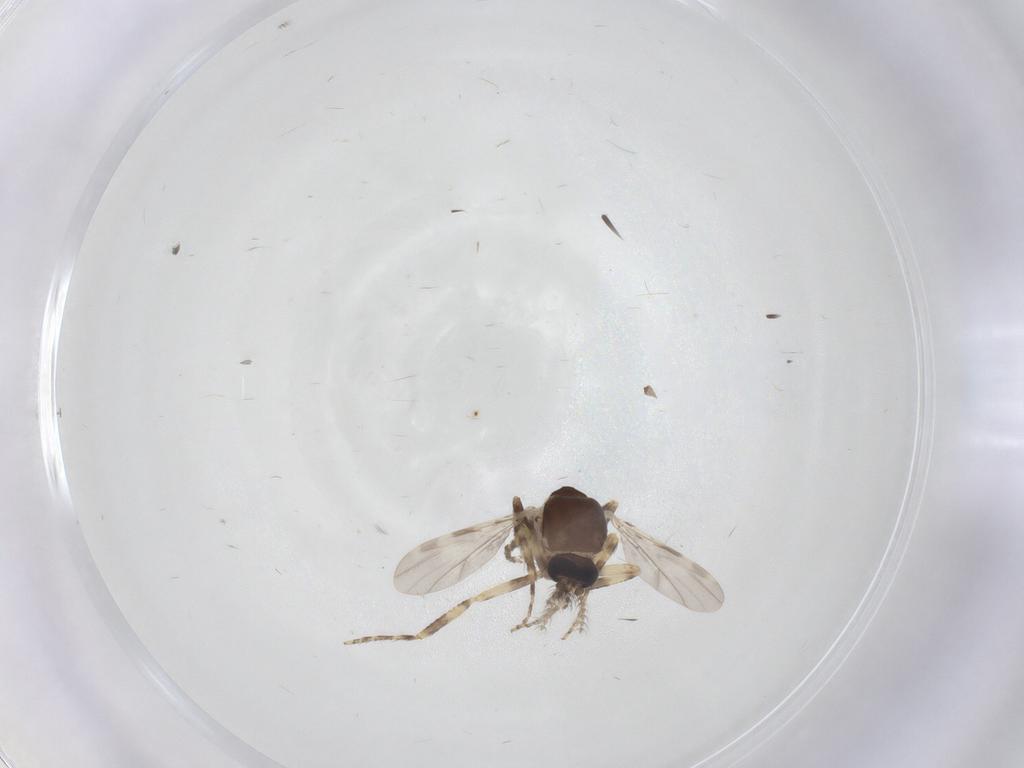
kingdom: Animalia
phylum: Arthropoda
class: Insecta
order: Diptera
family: Ceratopogonidae
